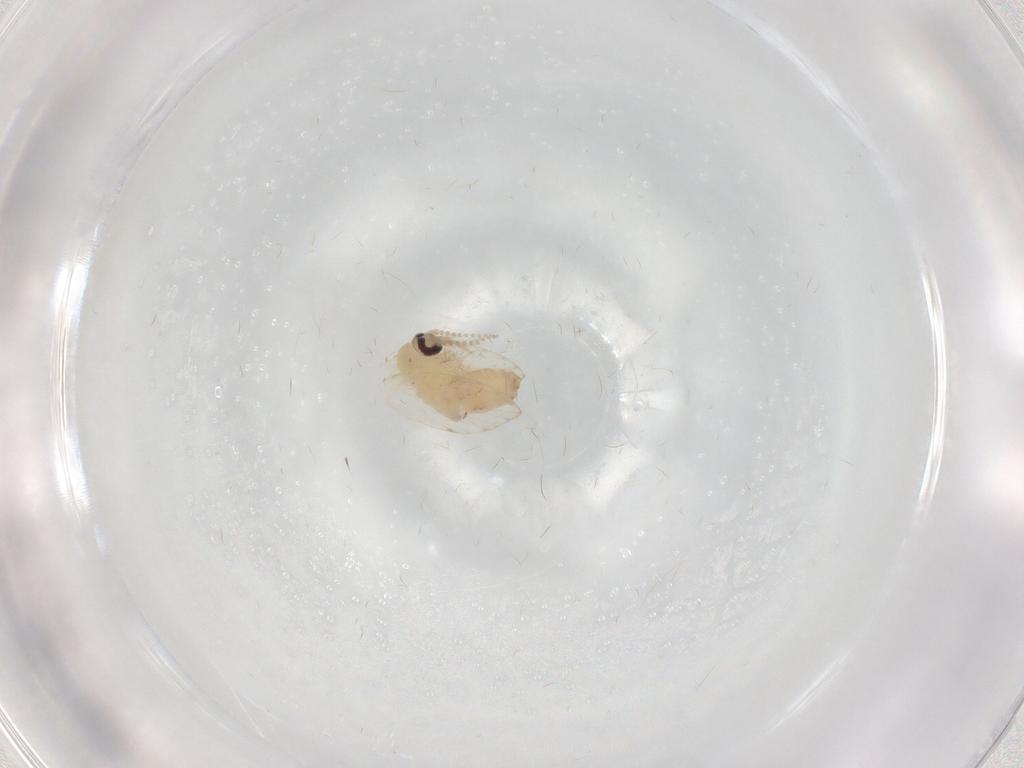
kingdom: Animalia
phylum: Arthropoda
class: Insecta
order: Diptera
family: Psychodidae
